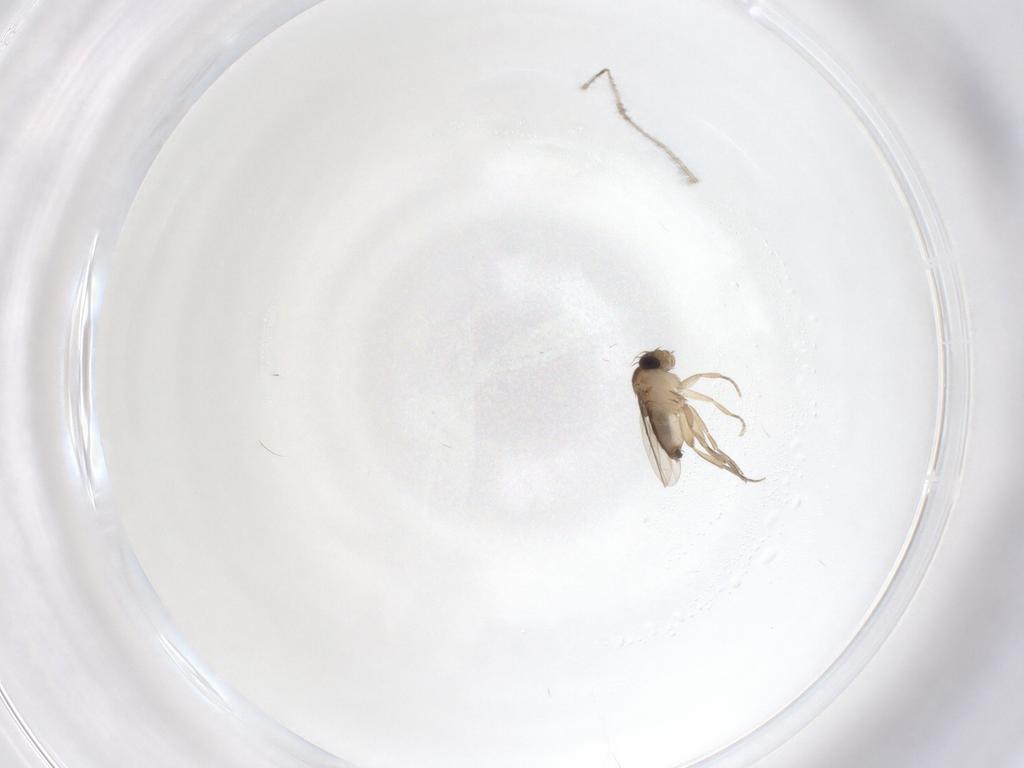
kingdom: Animalia
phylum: Arthropoda
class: Insecta
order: Diptera
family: Phoridae
